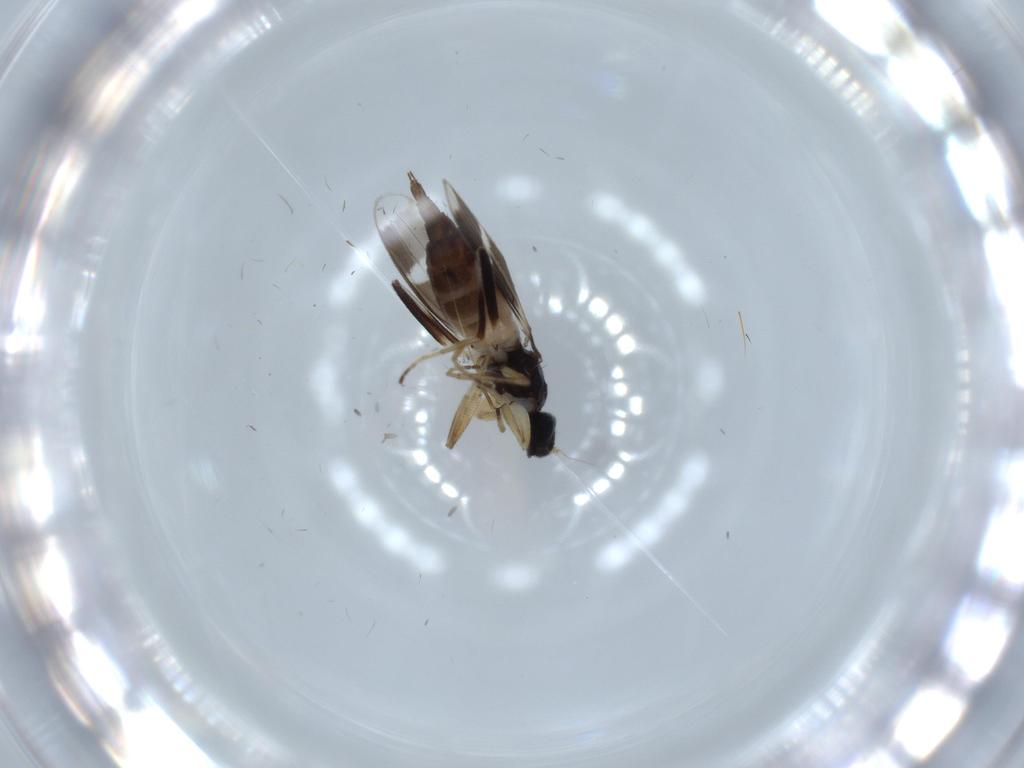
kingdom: Animalia
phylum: Arthropoda
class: Insecta
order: Diptera
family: Hybotidae
